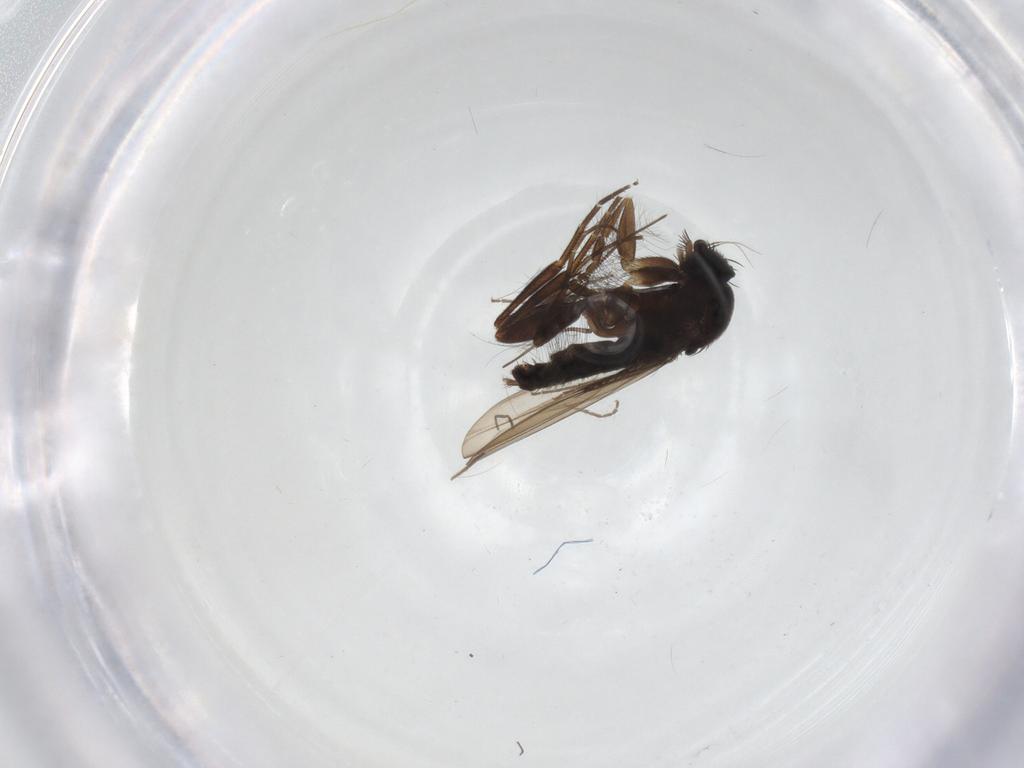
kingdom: Animalia
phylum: Arthropoda
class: Insecta
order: Diptera
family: Phoridae
